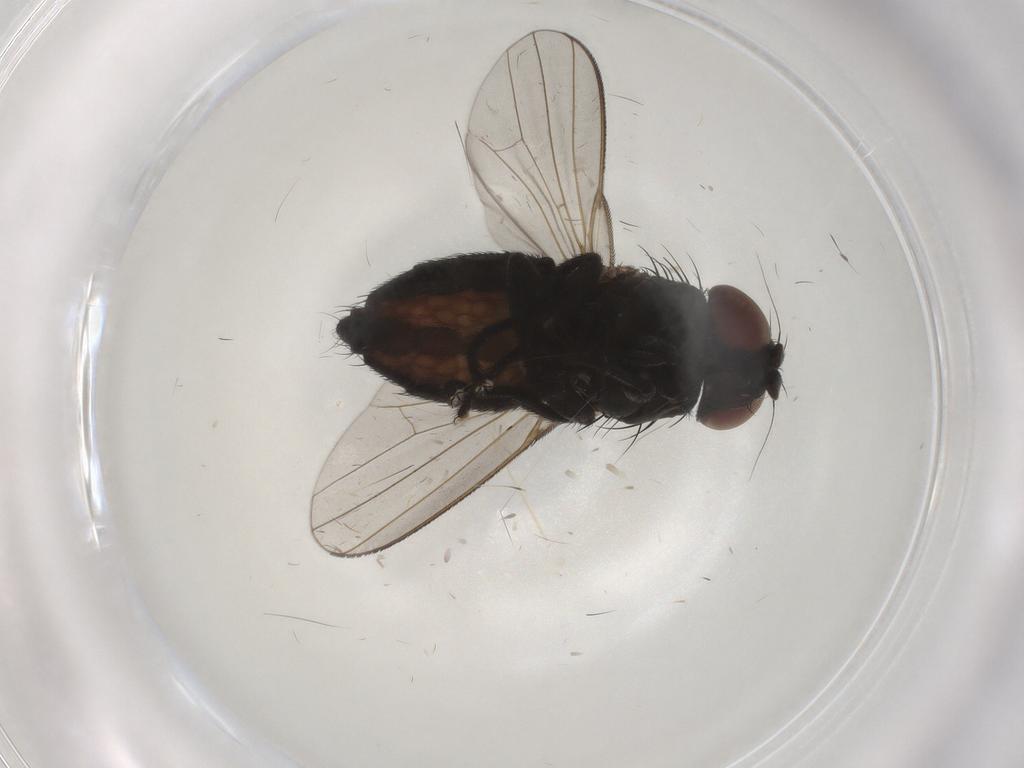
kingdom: Animalia
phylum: Arthropoda
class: Insecta
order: Diptera
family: Milichiidae
